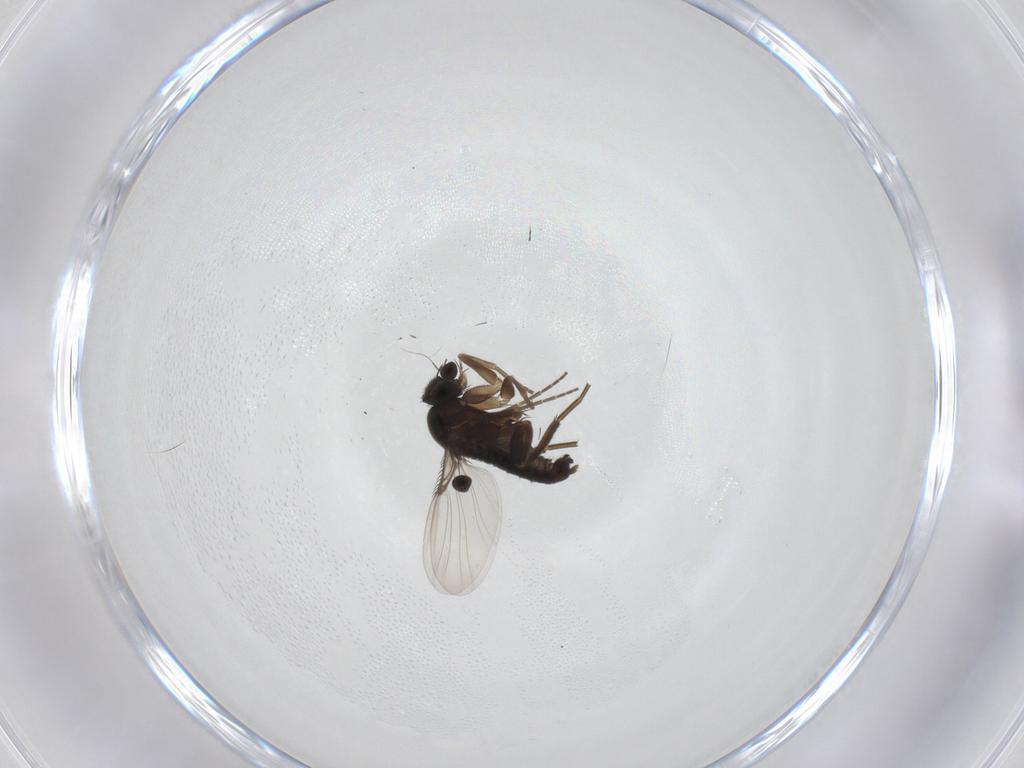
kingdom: Animalia
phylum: Arthropoda
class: Insecta
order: Diptera
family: Phoridae
